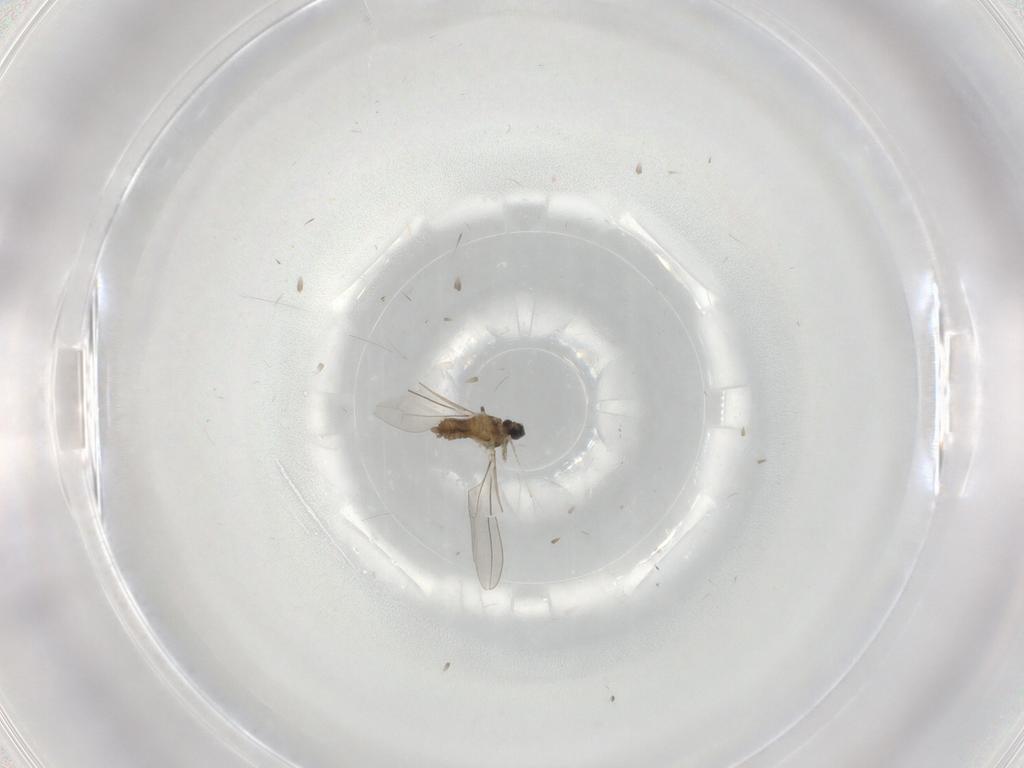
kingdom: Animalia
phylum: Arthropoda
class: Insecta
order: Diptera
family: Cecidomyiidae
